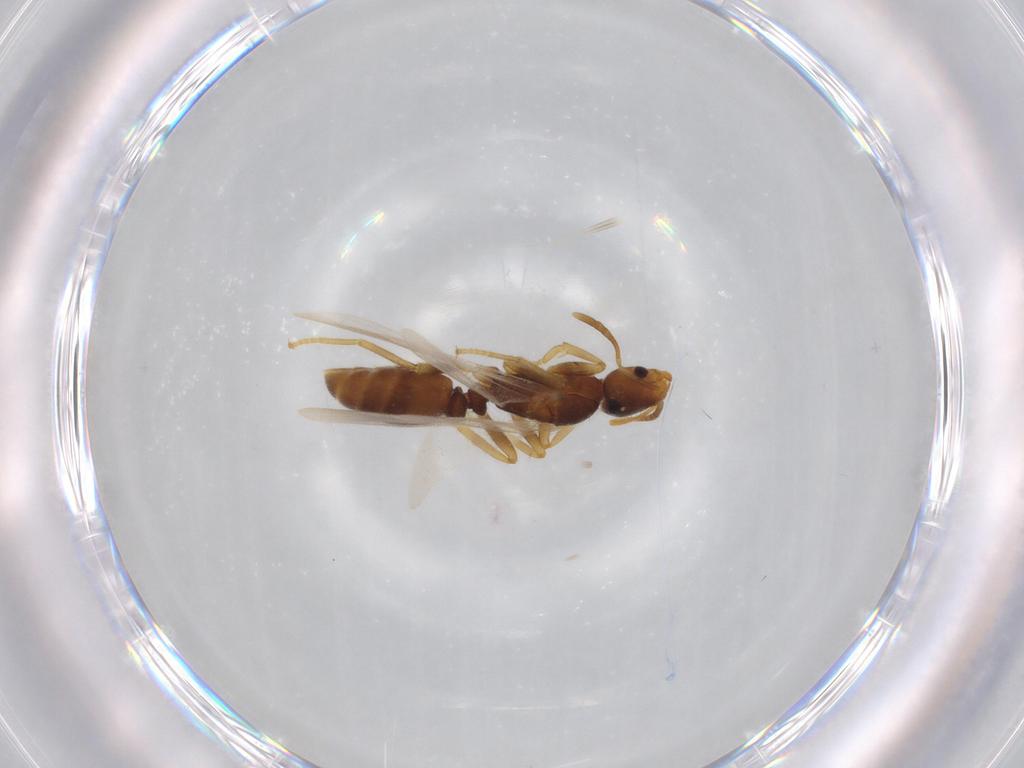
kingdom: Animalia
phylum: Arthropoda
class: Insecta
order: Hymenoptera
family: Formicidae
